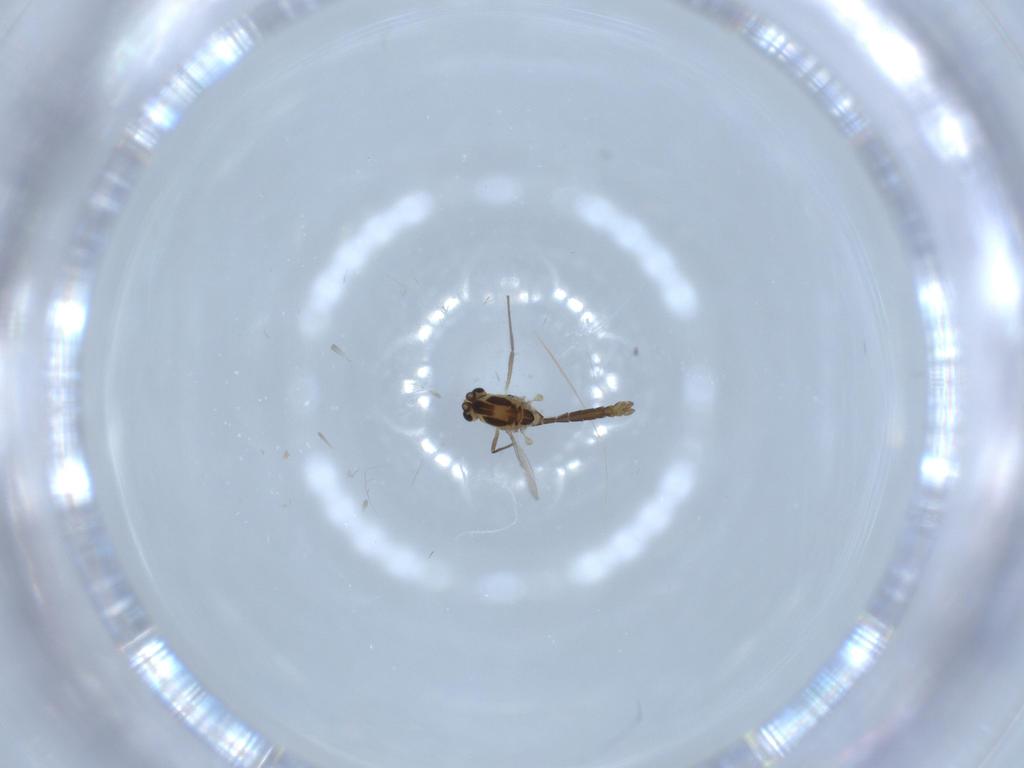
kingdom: Animalia
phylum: Arthropoda
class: Insecta
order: Diptera
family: Chironomidae
